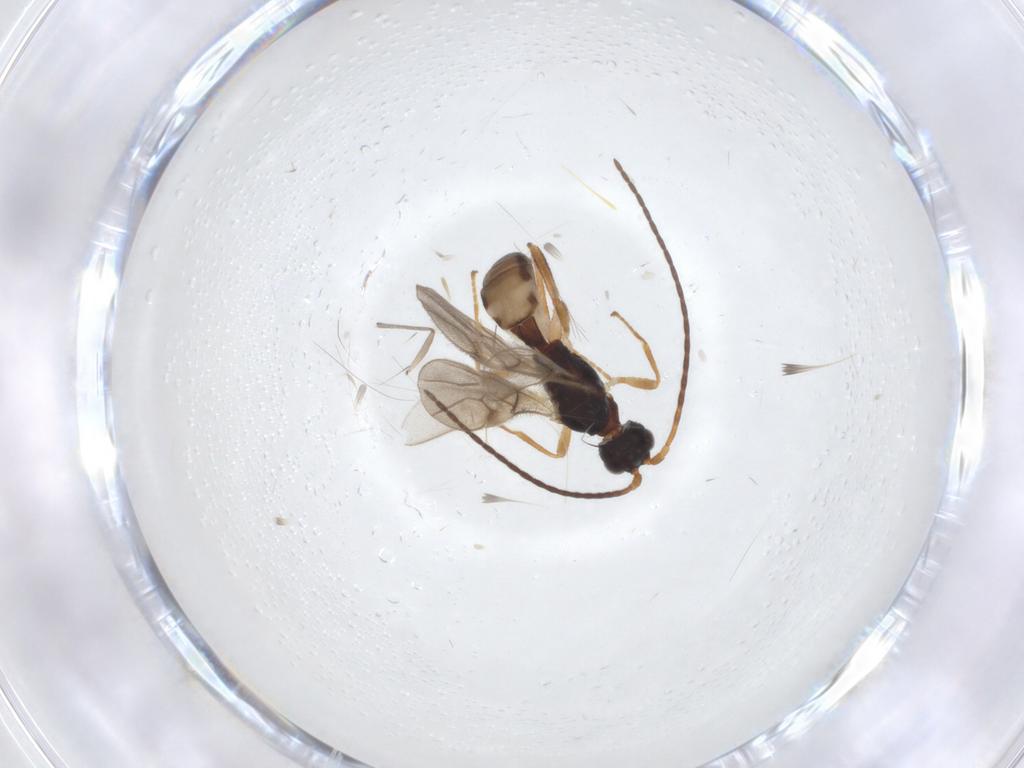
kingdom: Animalia
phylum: Arthropoda
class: Insecta
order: Hymenoptera
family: Braconidae
